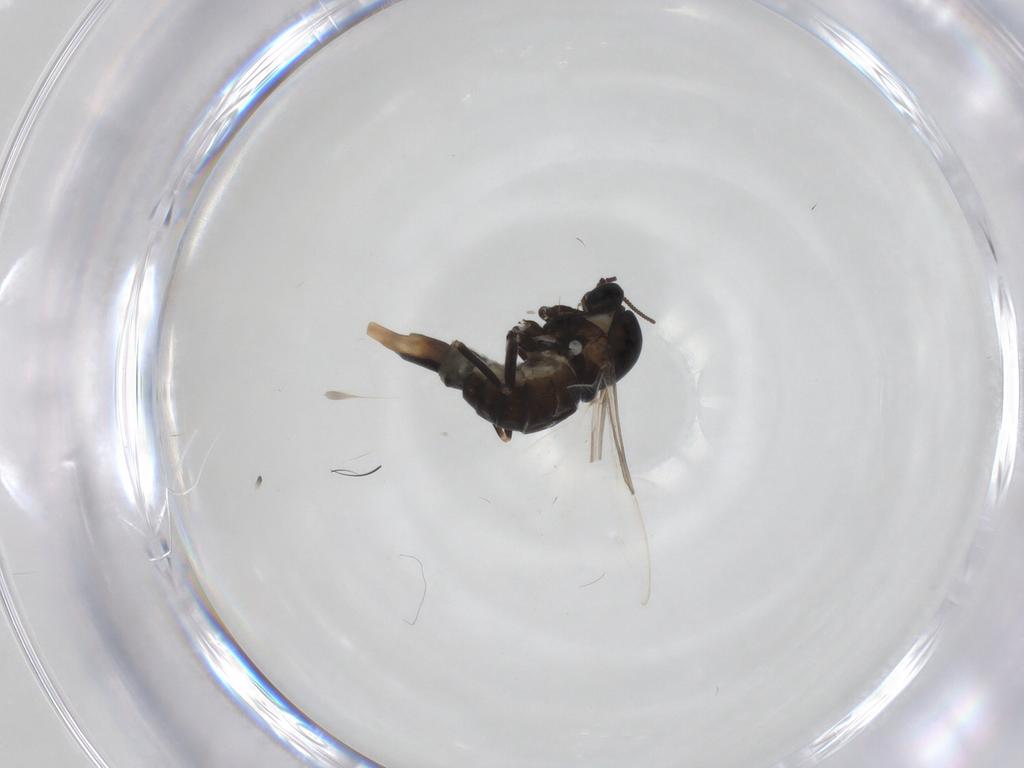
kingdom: Animalia
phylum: Arthropoda
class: Insecta
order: Diptera
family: Cecidomyiidae
